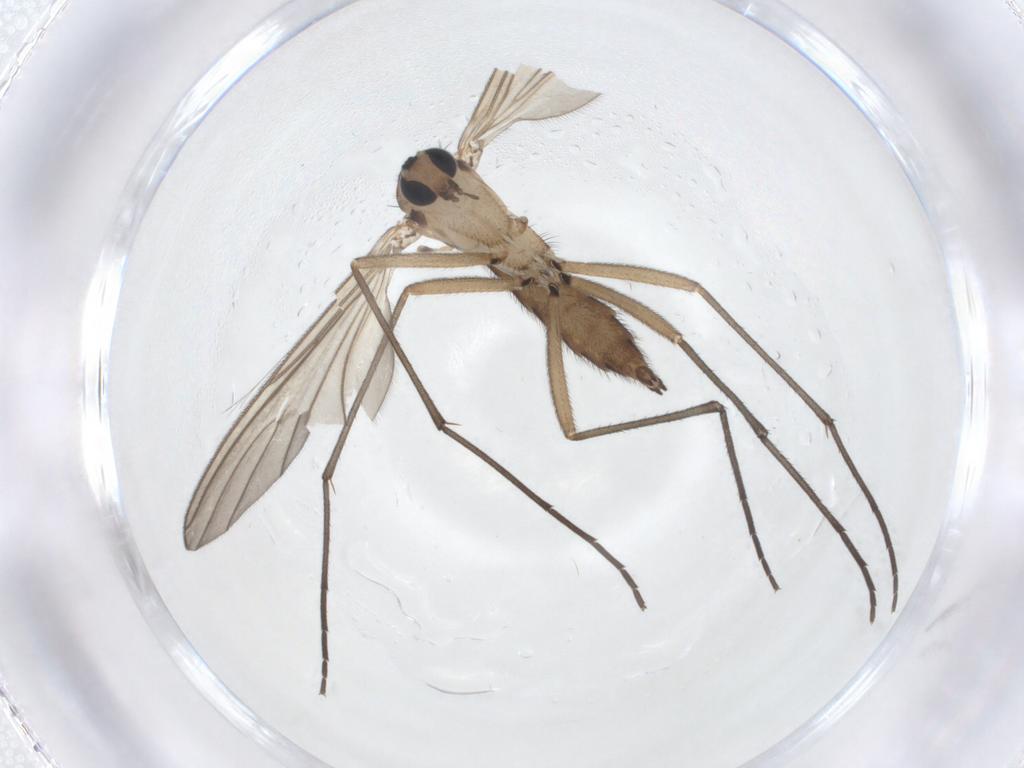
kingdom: Animalia
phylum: Arthropoda
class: Insecta
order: Diptera
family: Sciaridae
